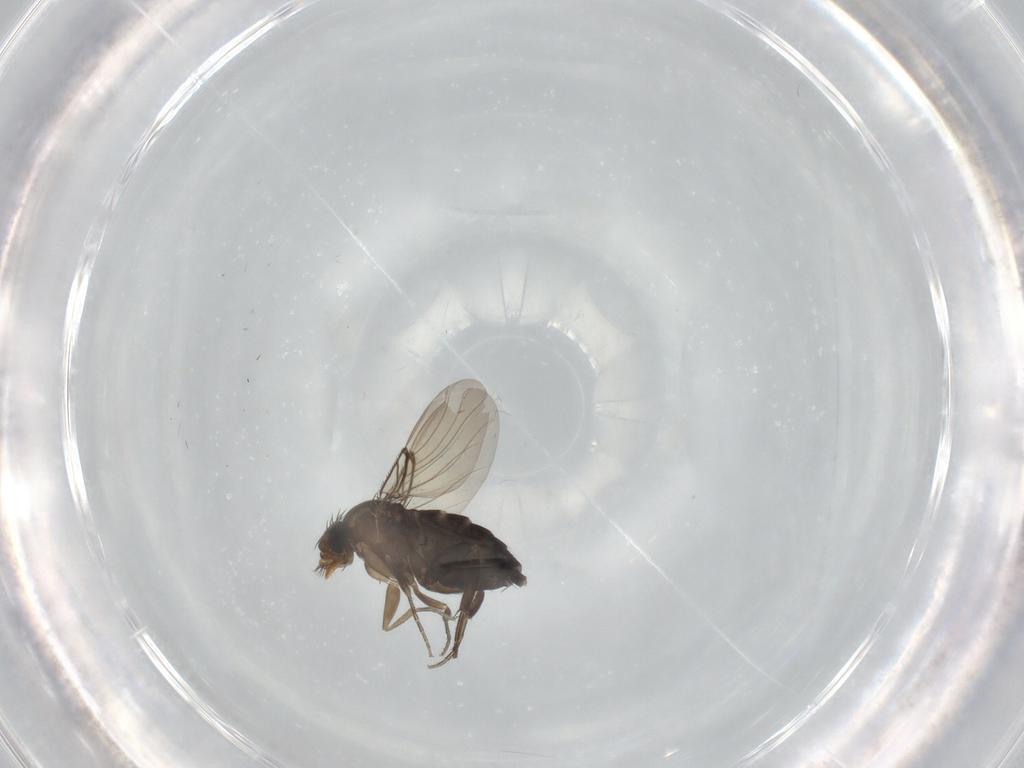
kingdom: Animalia
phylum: Arthropoda
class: Insecta
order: Diptera
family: Phoridae
